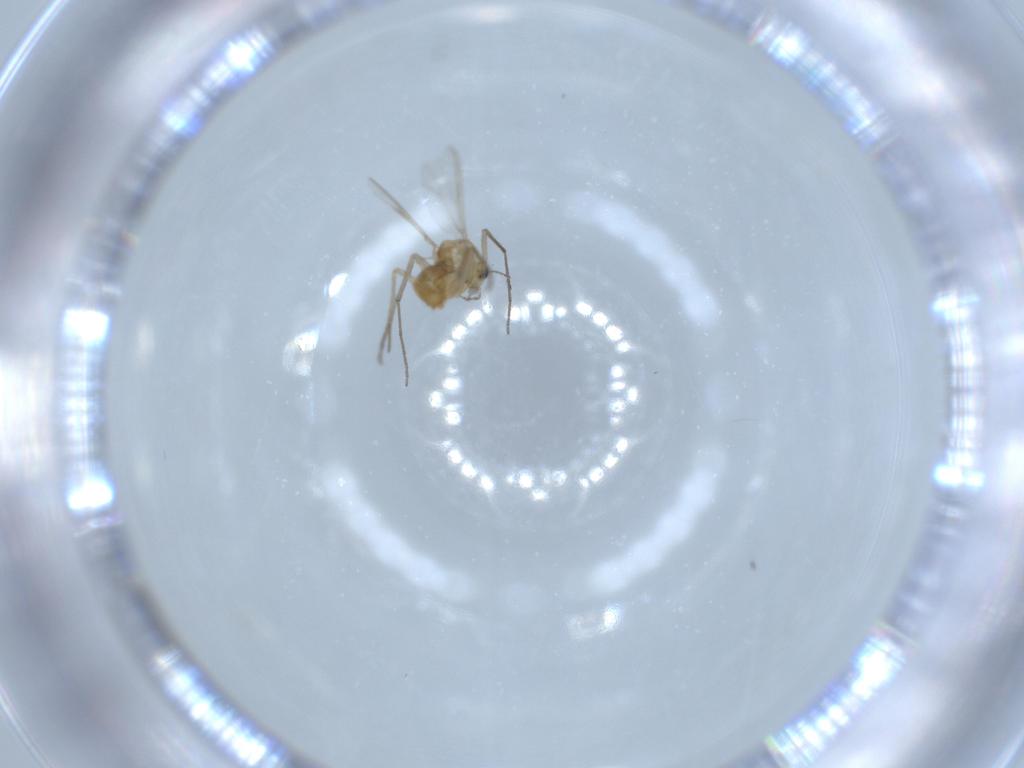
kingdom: Animalia
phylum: Arthropoda
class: Insecta
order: Diptera
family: Chironomidae
